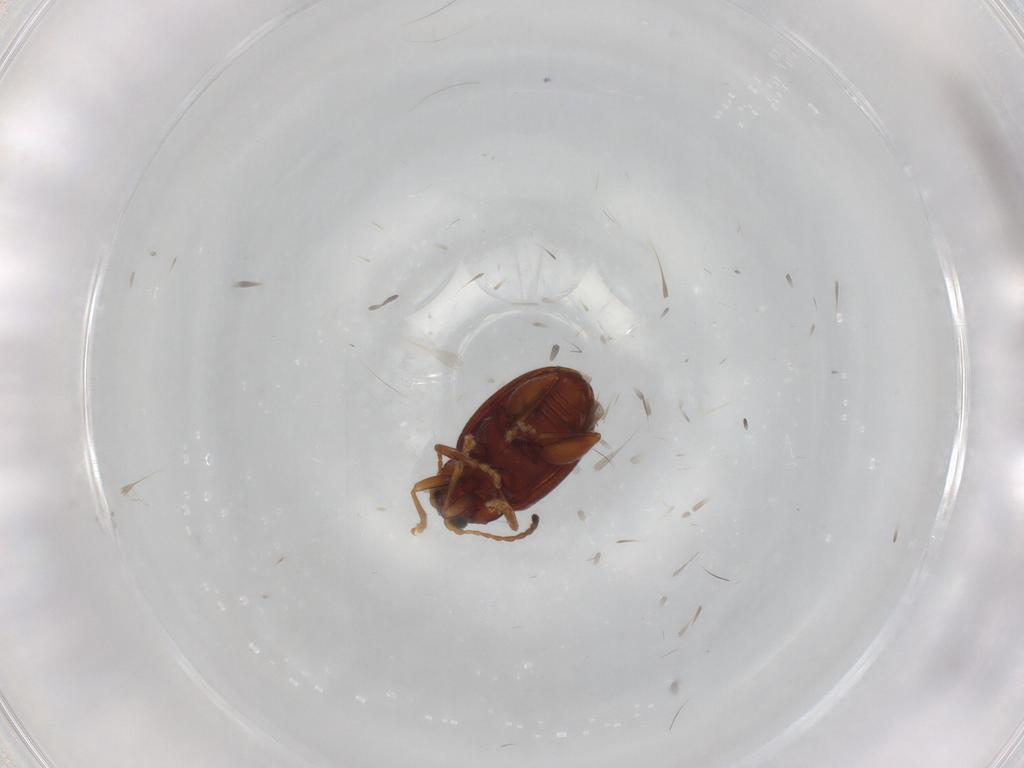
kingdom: Animalia
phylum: Arthropoda
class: Insecta
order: Coleoptera
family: Chrysomelidae
